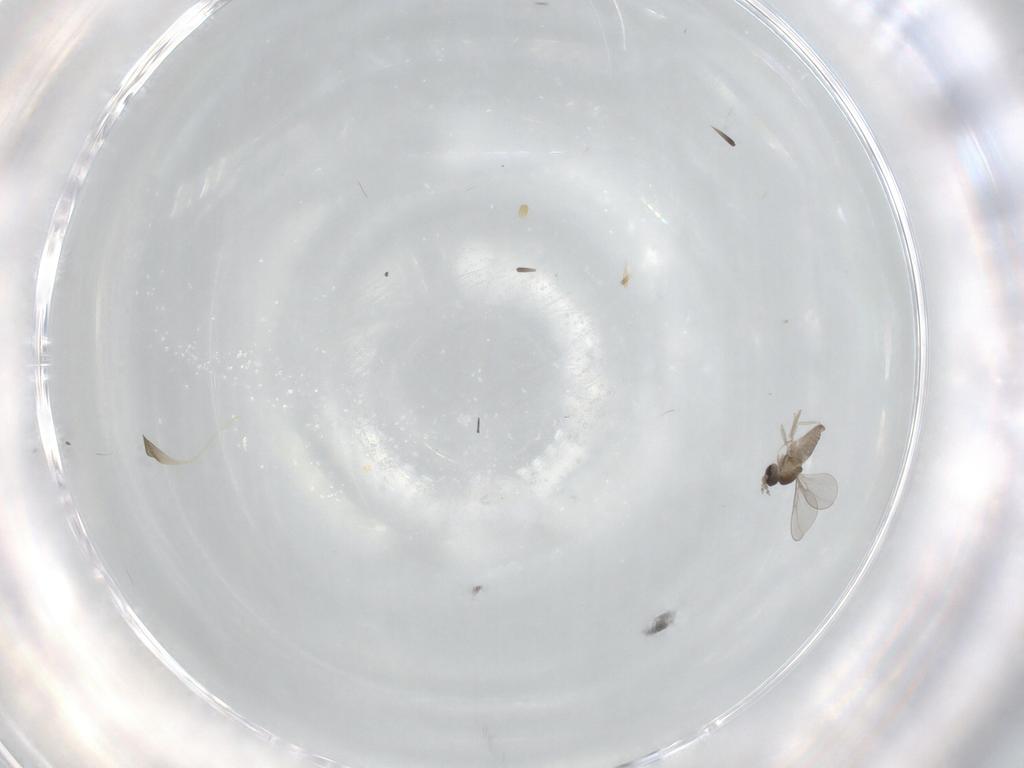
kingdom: Animalia
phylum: Arthropoda
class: Insecta
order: Diptera
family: Cecidomyiidae
